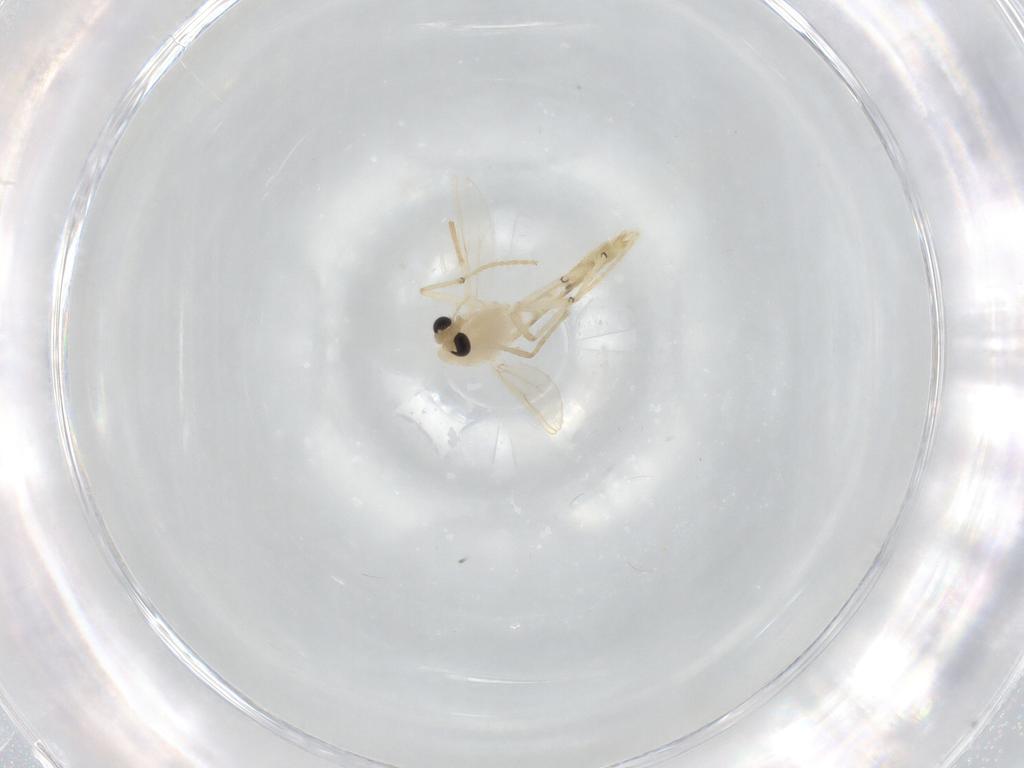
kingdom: Animalia
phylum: Arthropoda
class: Insecta
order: Diptera
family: Chironomidae
